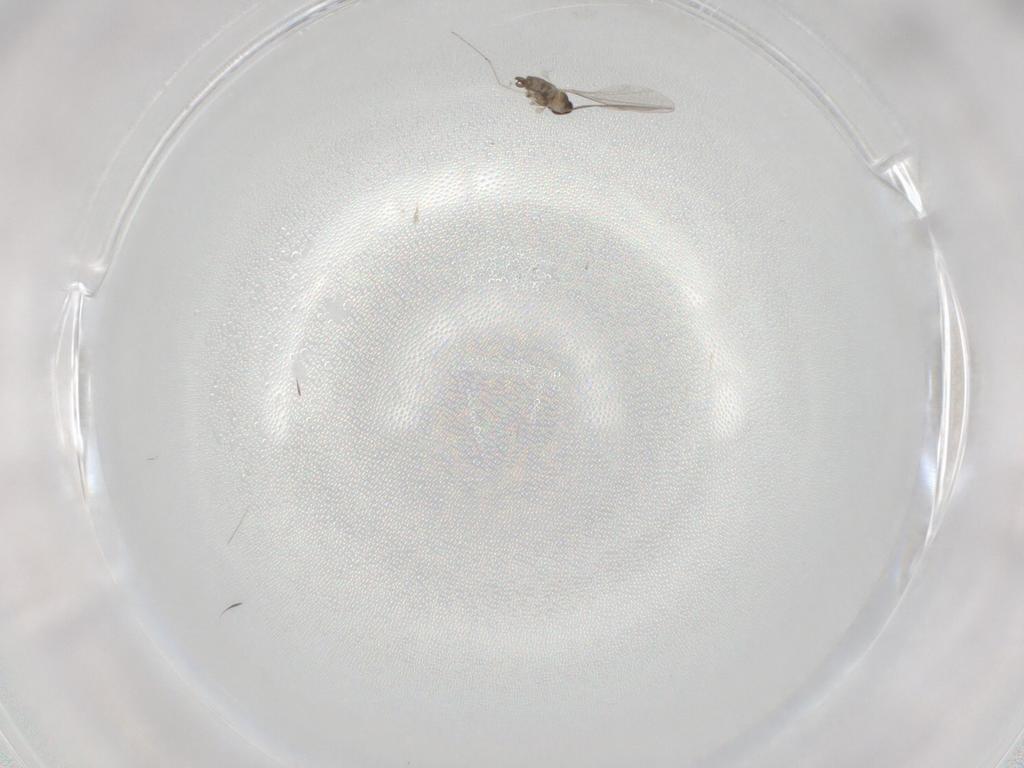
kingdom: Animalia
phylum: Arthropoda
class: Insecta
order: Diptera
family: Cecidomyiidae
